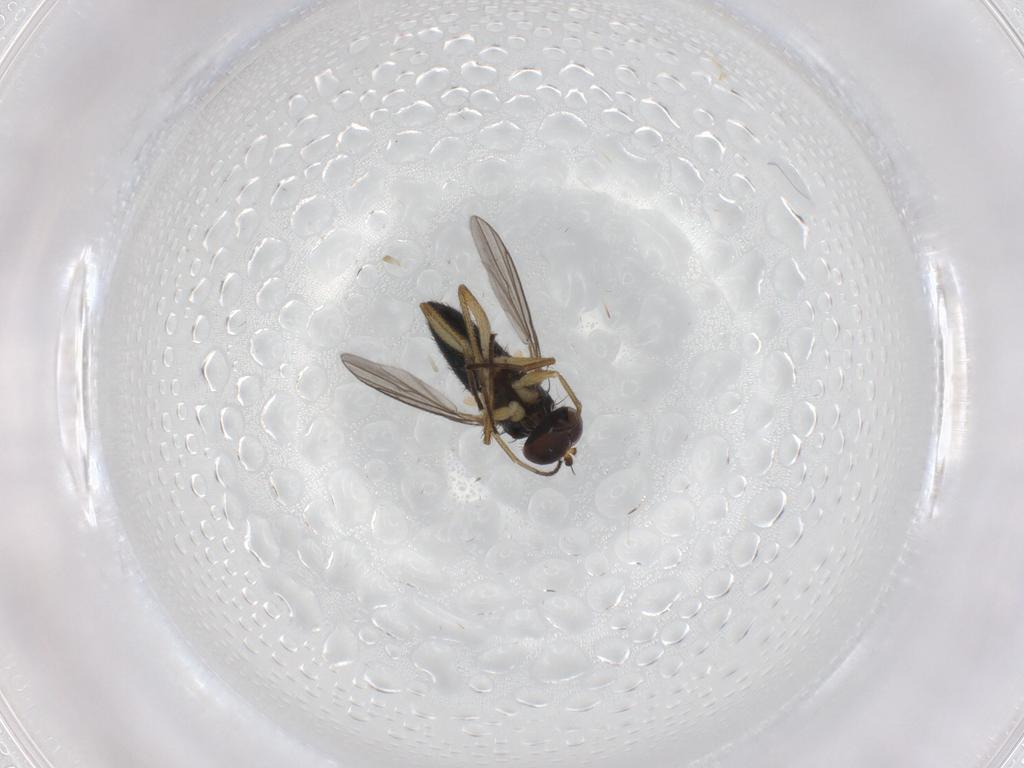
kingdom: Animalia
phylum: Arthropoda
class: Insecta
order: Diptera
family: Dolichopodidae
